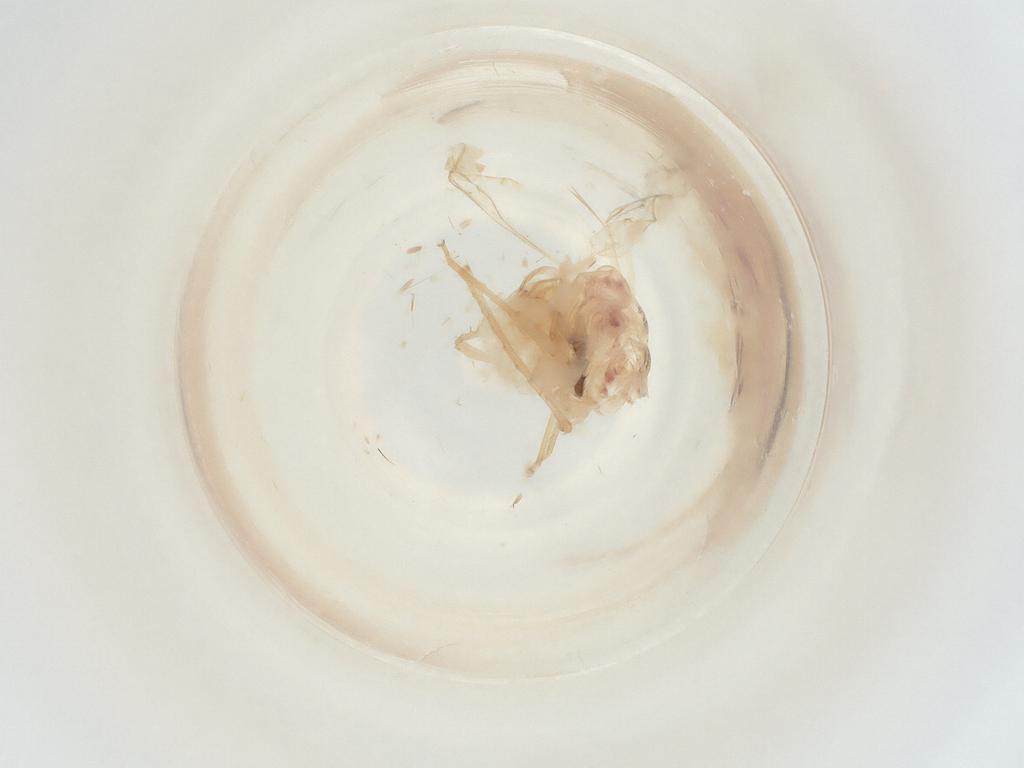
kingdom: Animalia
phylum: Arthropoda
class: Insecta
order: Hemiptera
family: Cicadellidae
